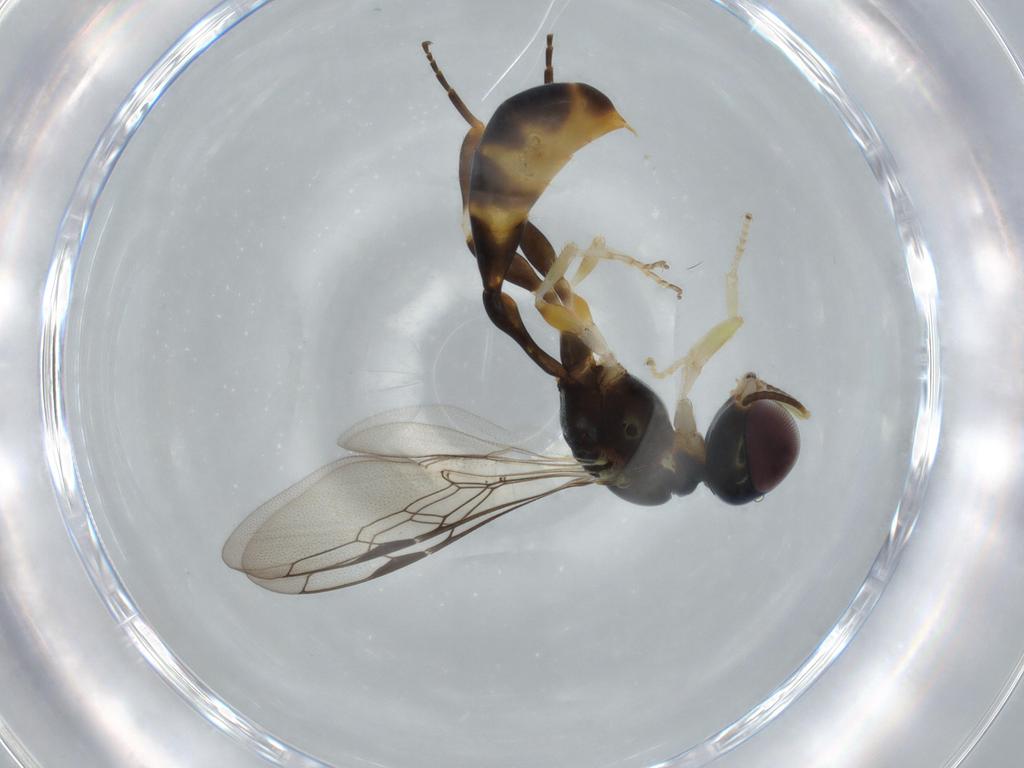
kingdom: Animalia
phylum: Arthropoda
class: Insecta
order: Hymenoptera
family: Crabronidae
